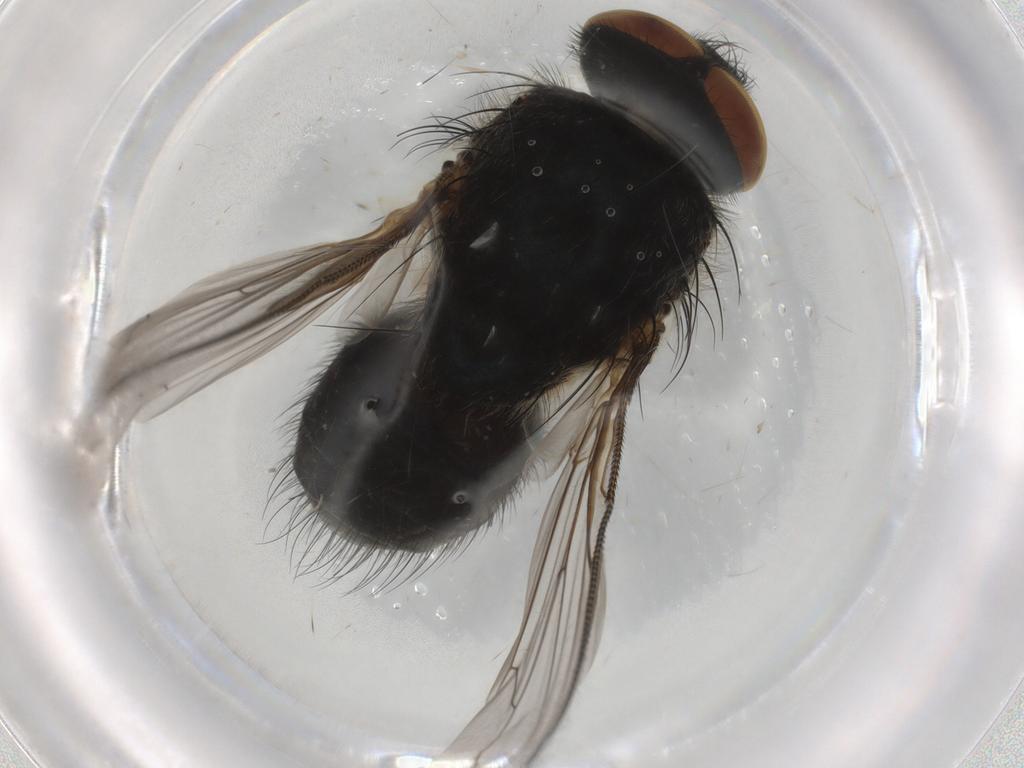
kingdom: Animalia
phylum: Arthropoda
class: Insecta
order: Diptera
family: Polleniidae
